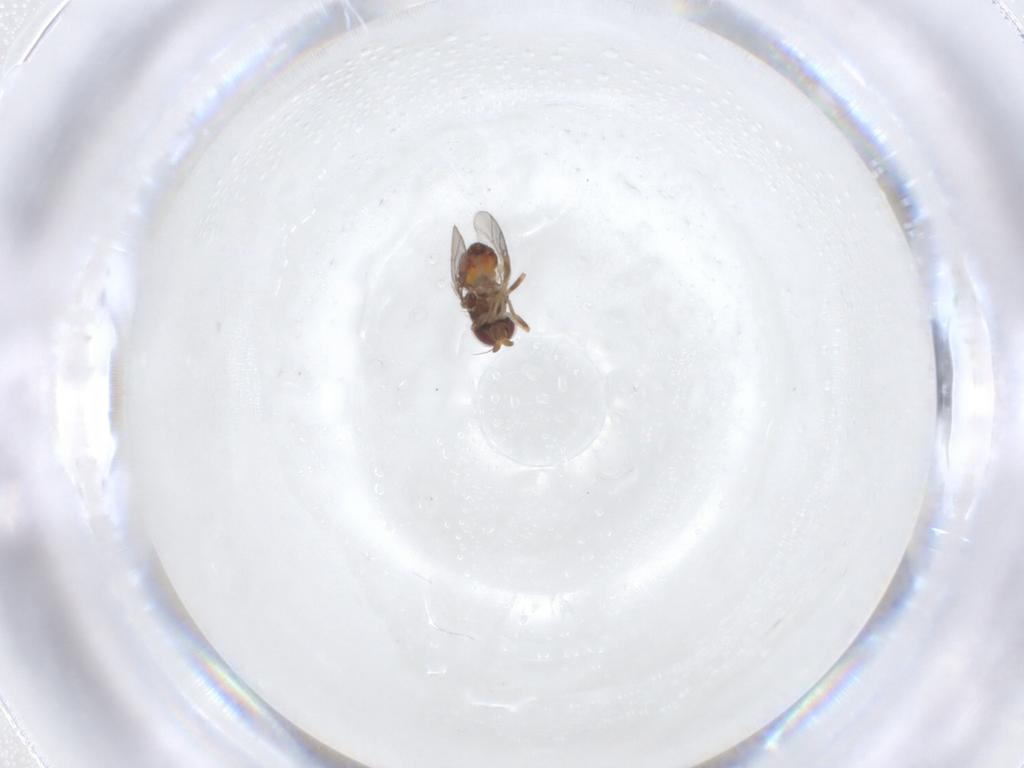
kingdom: Animalia
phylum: Arthropoda
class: Insecta
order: Diptera
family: Chloropidae
